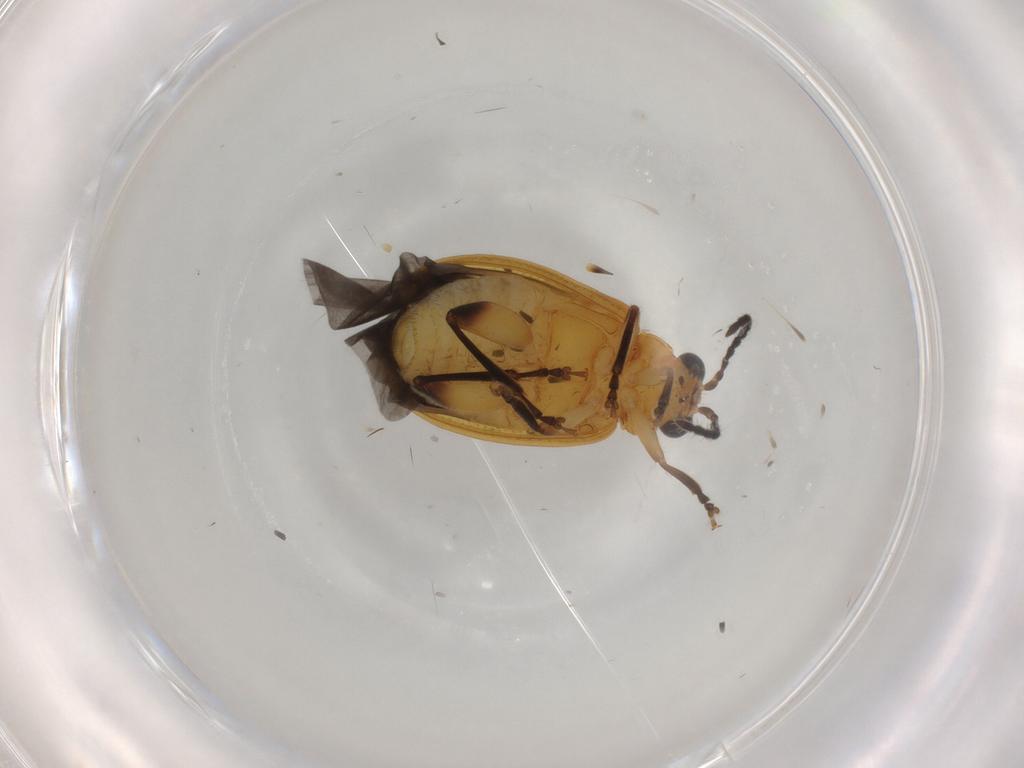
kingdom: Animalia
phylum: Arthropoda
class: Insecta
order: Coleoptera
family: Chrysomelidae
